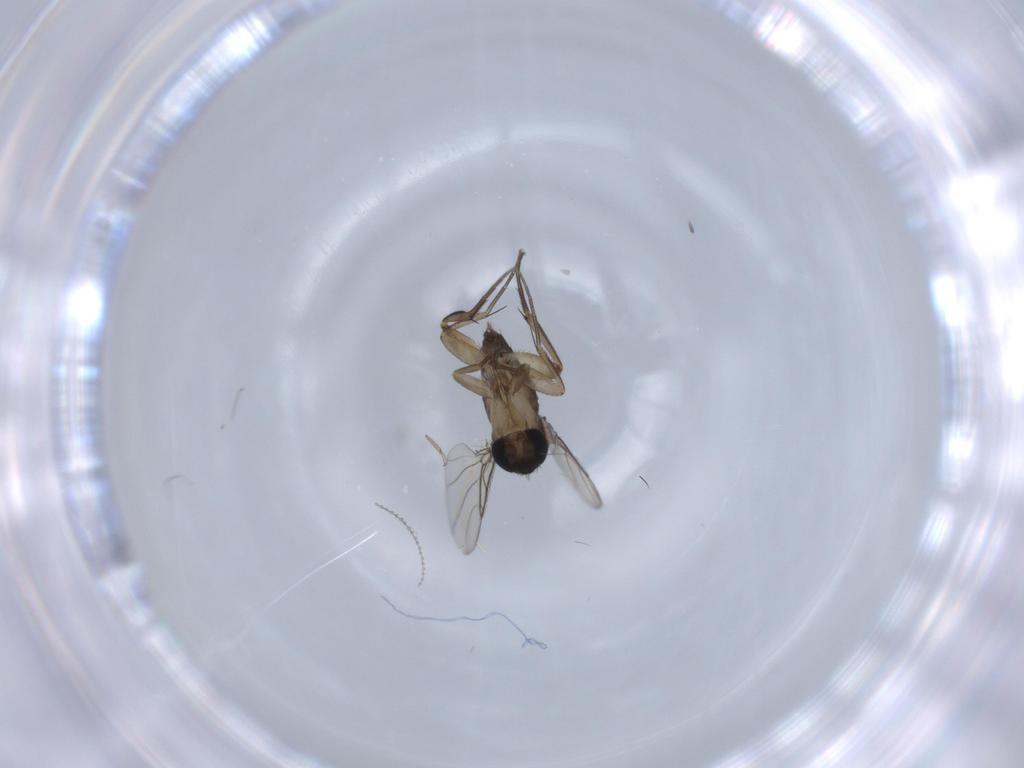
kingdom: Animalia
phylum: Arthropoda
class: Insecta
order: Diptera
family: Phoridae
